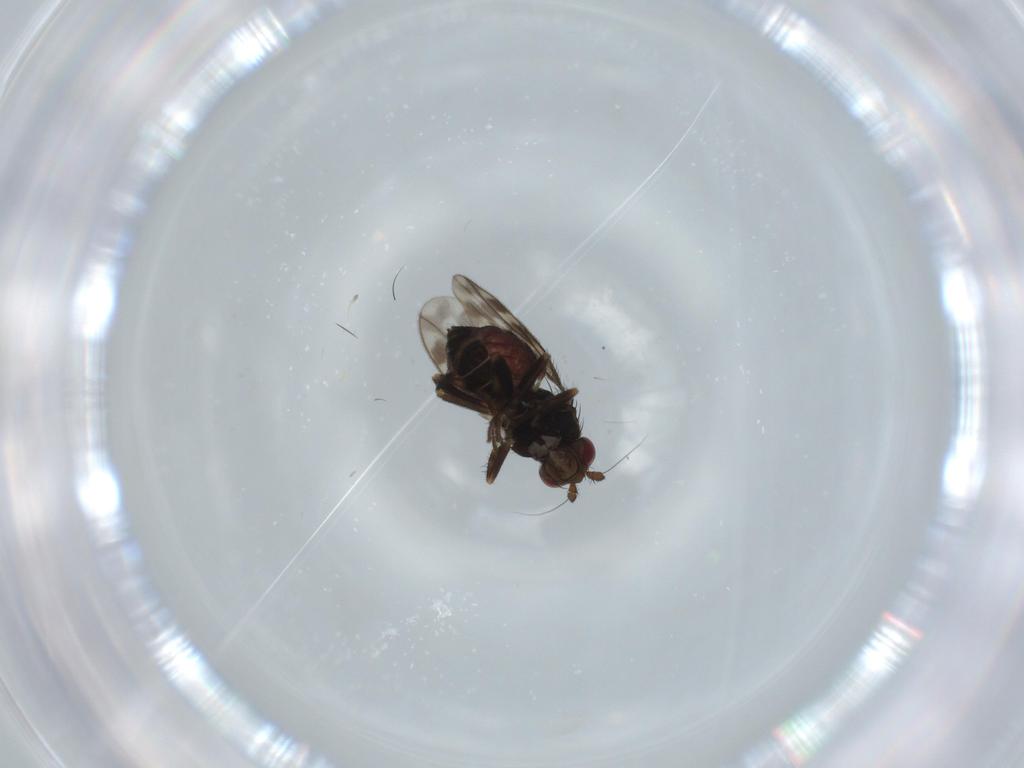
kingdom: Animalia
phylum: Arthropoda
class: Insecta
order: Diptera
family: Sphaeroceridae
